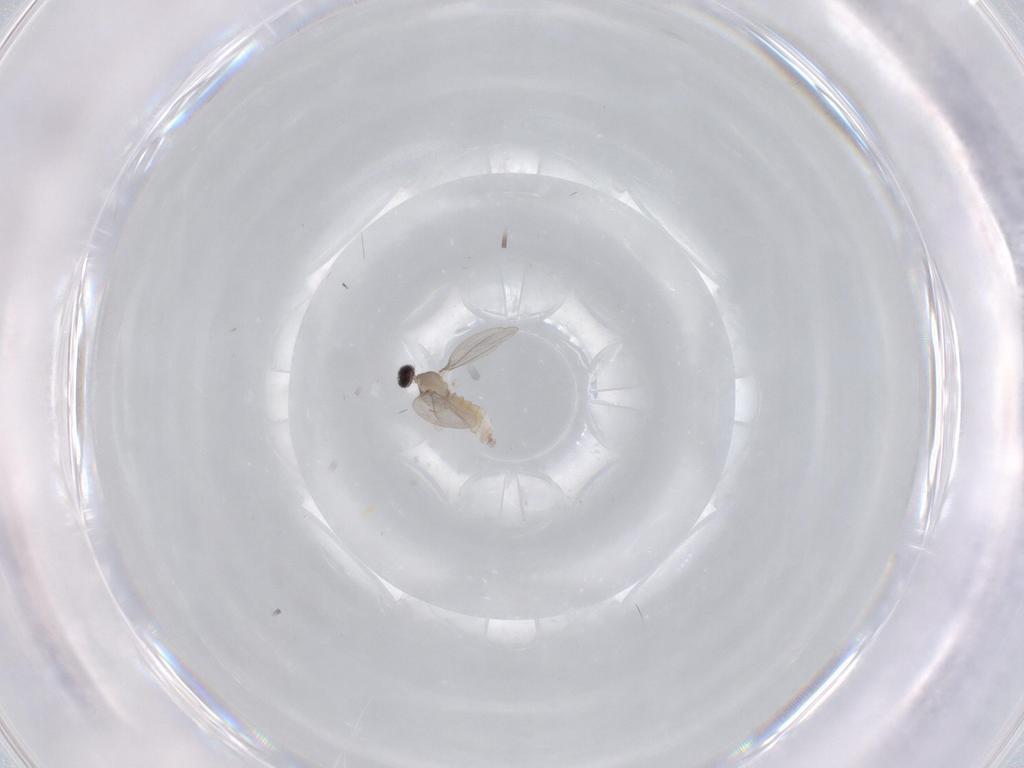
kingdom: Animalia
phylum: Arthropoda
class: Insecta
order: Diptera
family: Cecidomyiidae
